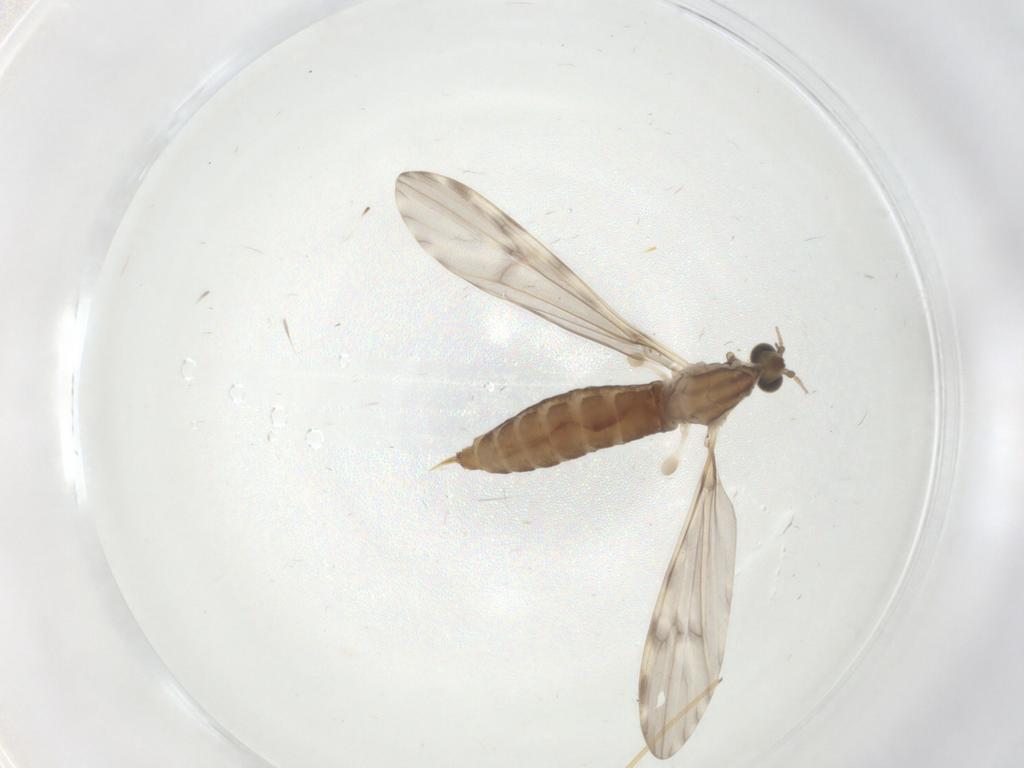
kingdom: Animalia
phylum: Arthropoda
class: Insecta
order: Diptera
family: Limoniidae
